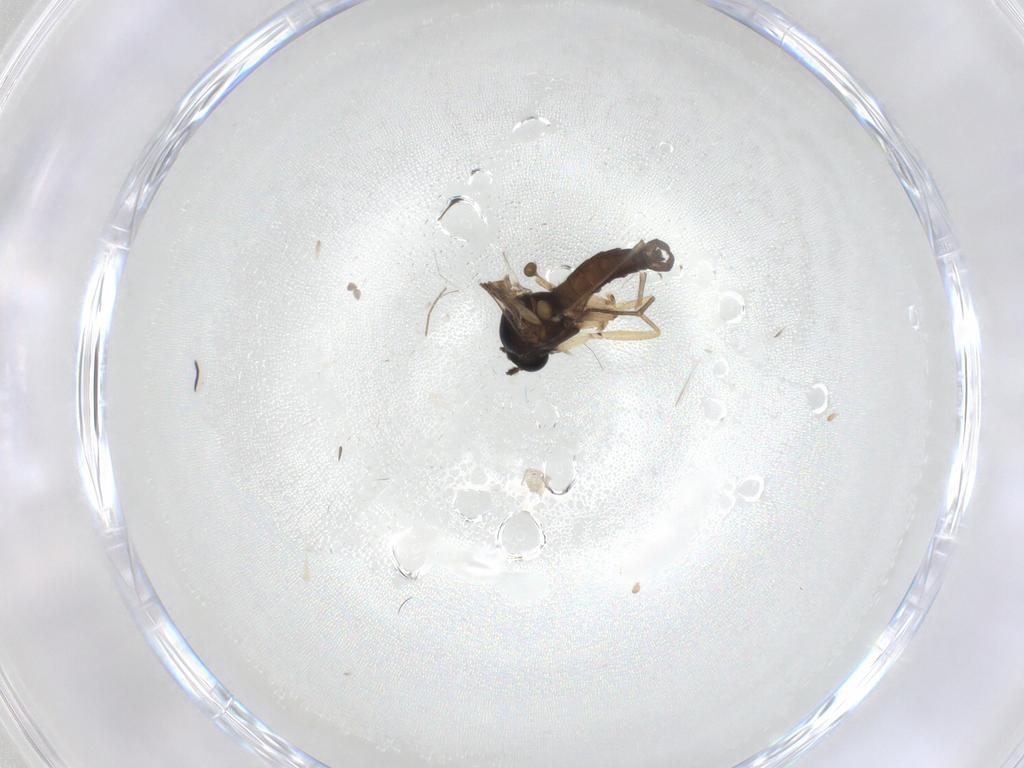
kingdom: Animalia
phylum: Arthropoda
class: Insecta
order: Diptera
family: Sciaridae
